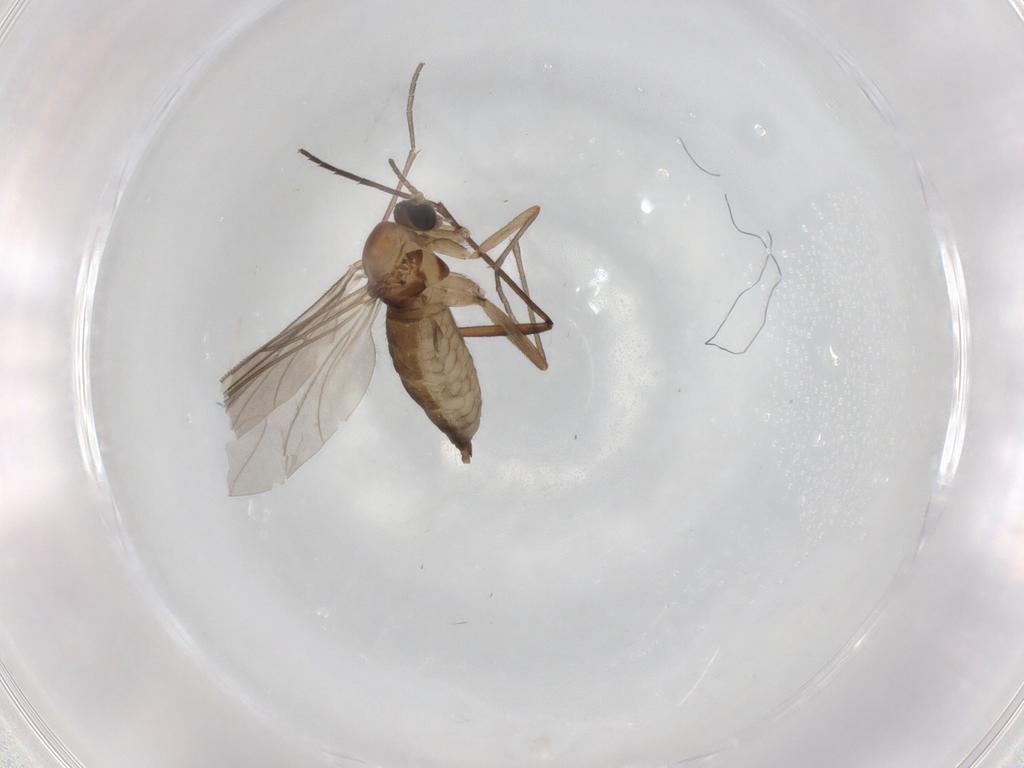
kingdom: Animalia
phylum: Arthropoda
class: Insecta
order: Diptera
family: Sciaridae
